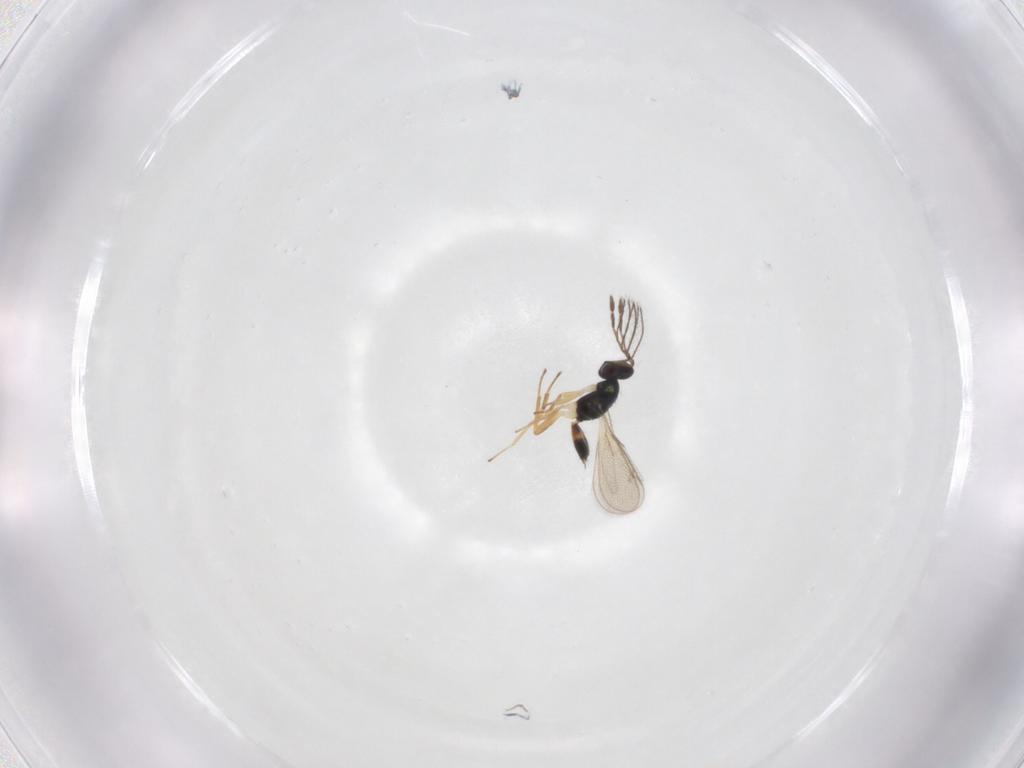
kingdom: Animalia
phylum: Arthropoda
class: Insecta
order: Hymenoptera
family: Eulophidae
